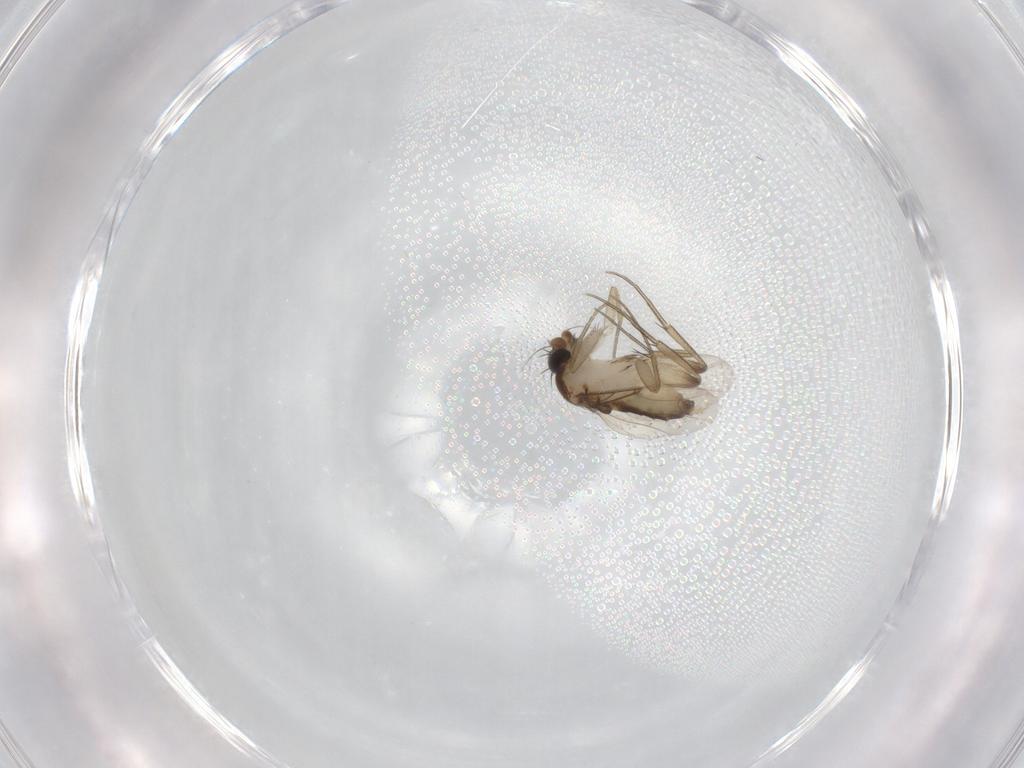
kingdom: Animalia
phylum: Arthropoda
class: Insecta
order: Diptera
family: Phoridae
